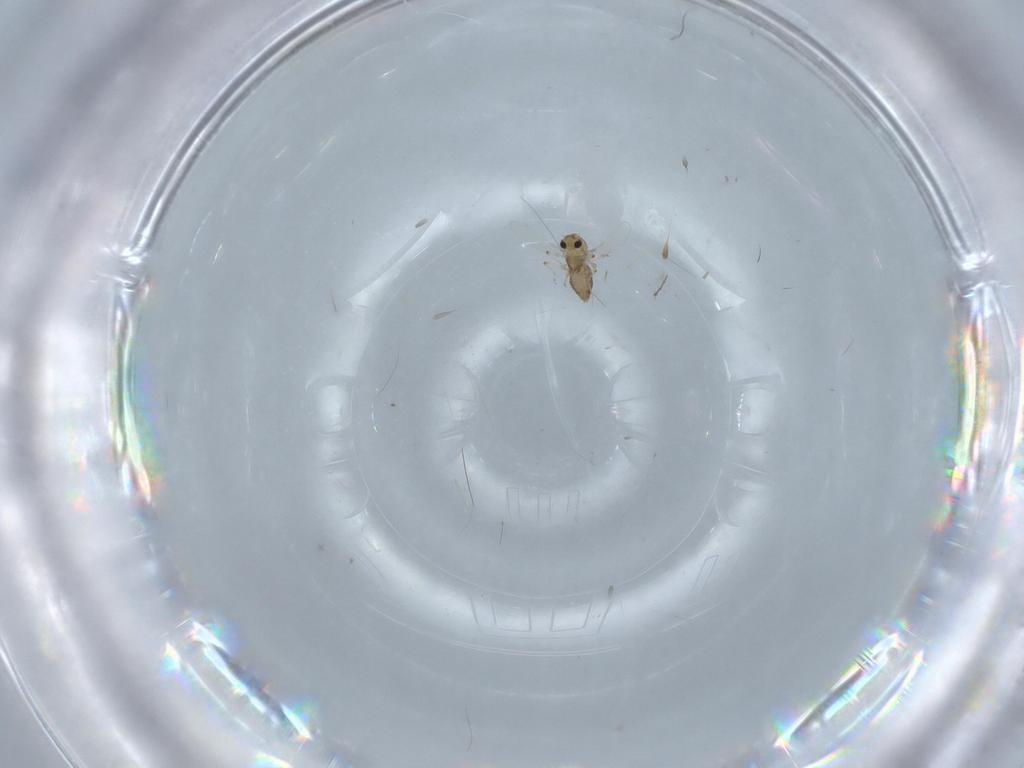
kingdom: Animalia
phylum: Arthropoda
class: Insecta
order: Diptera
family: Chironomidae
